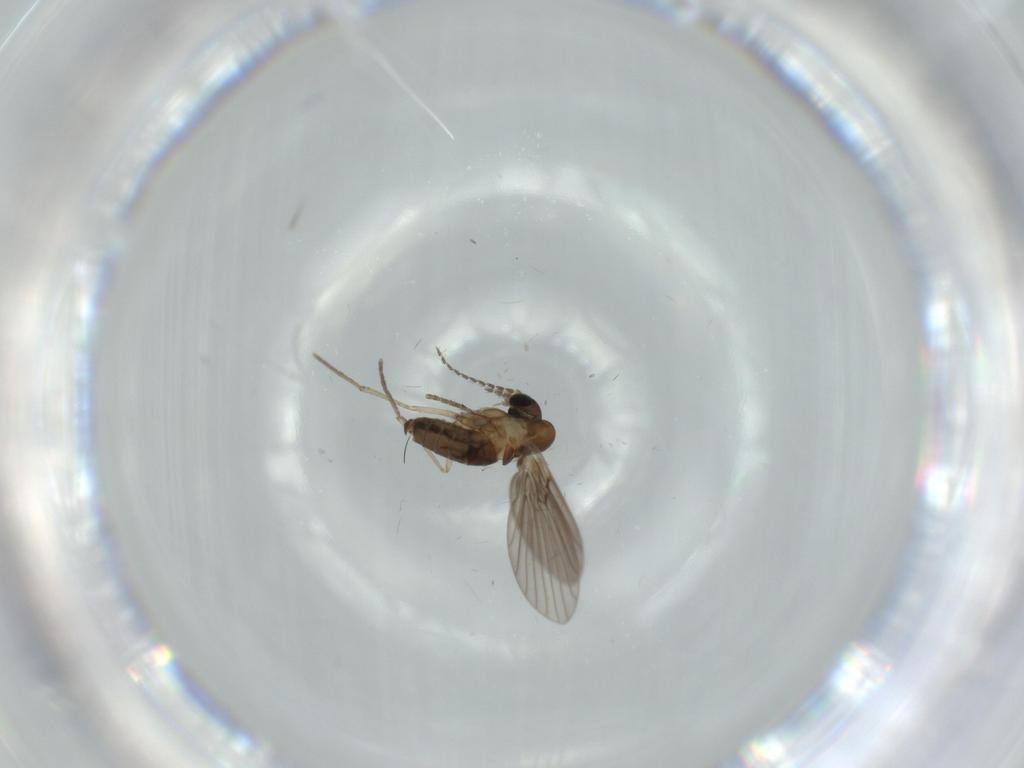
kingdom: Animalia
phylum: Arthropoda
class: Insecta
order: Diptera
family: Psychodidae
